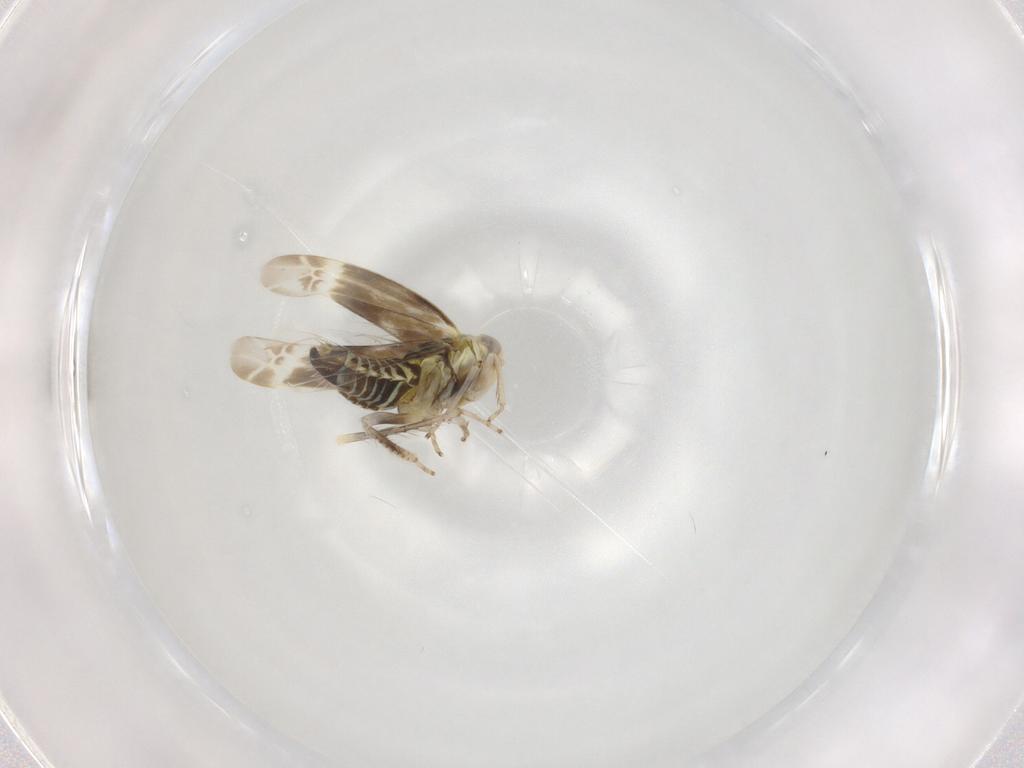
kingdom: Animalia
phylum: Arthropoda
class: Insecta
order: Hemiptera
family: Cicadellidae
